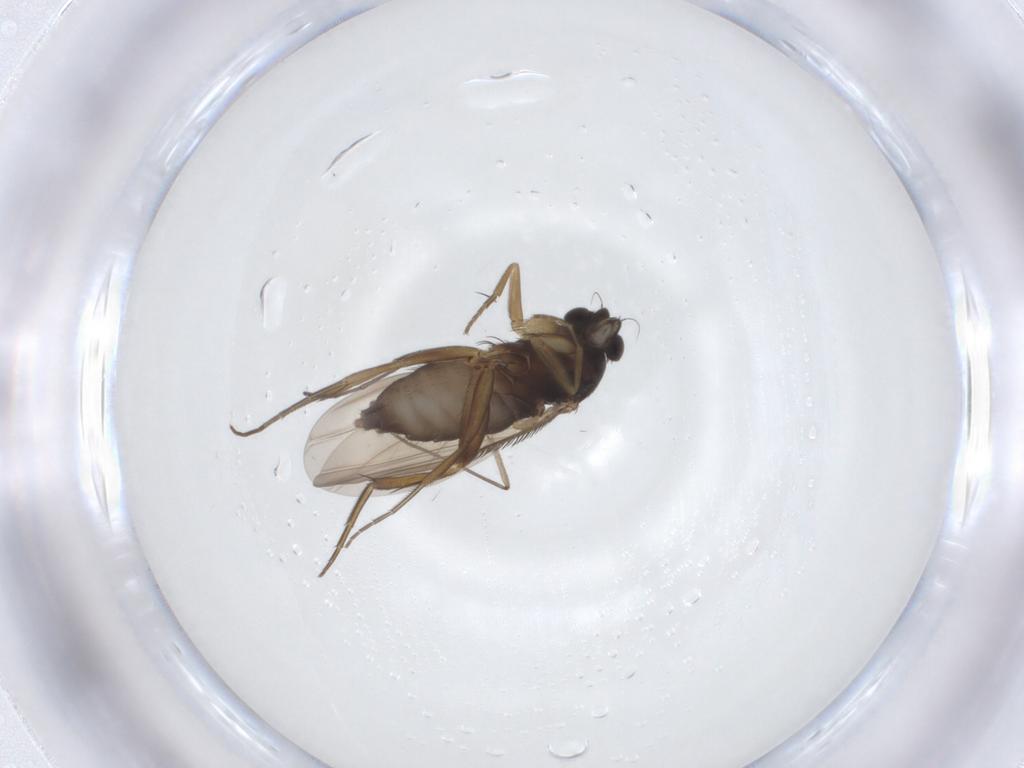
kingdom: Animalia
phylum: Arthropoda
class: Insecta
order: Diptera
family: Phoridae
